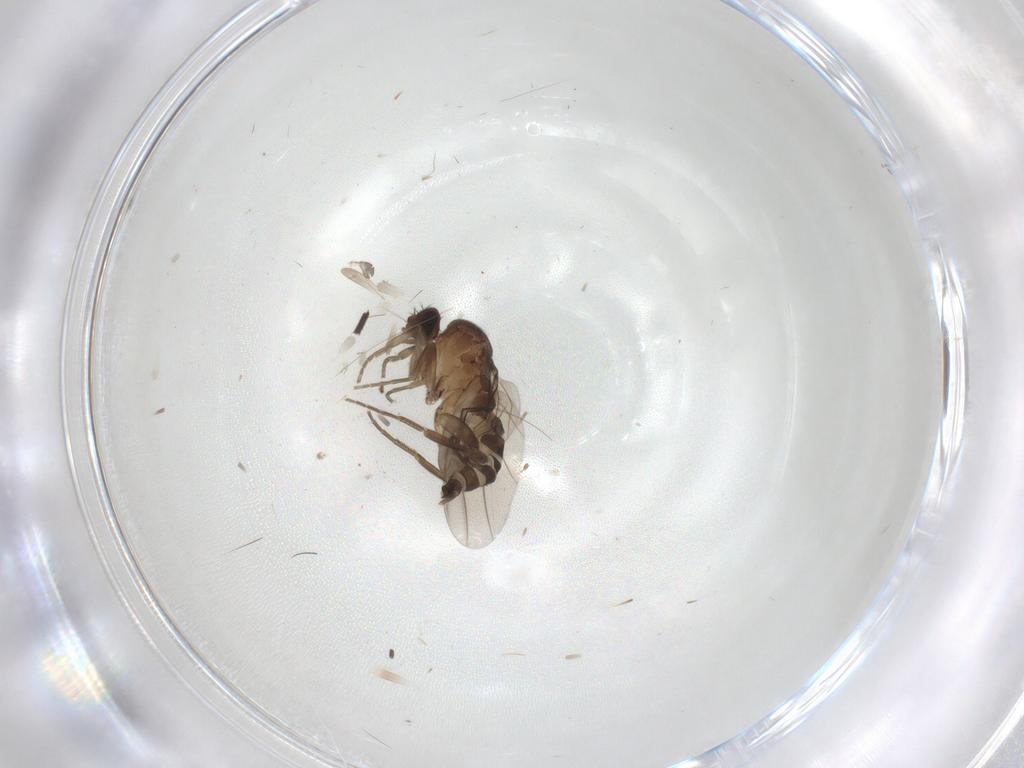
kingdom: Animalia
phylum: Arthropoda
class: Insecta
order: Diptera
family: Phoridae
